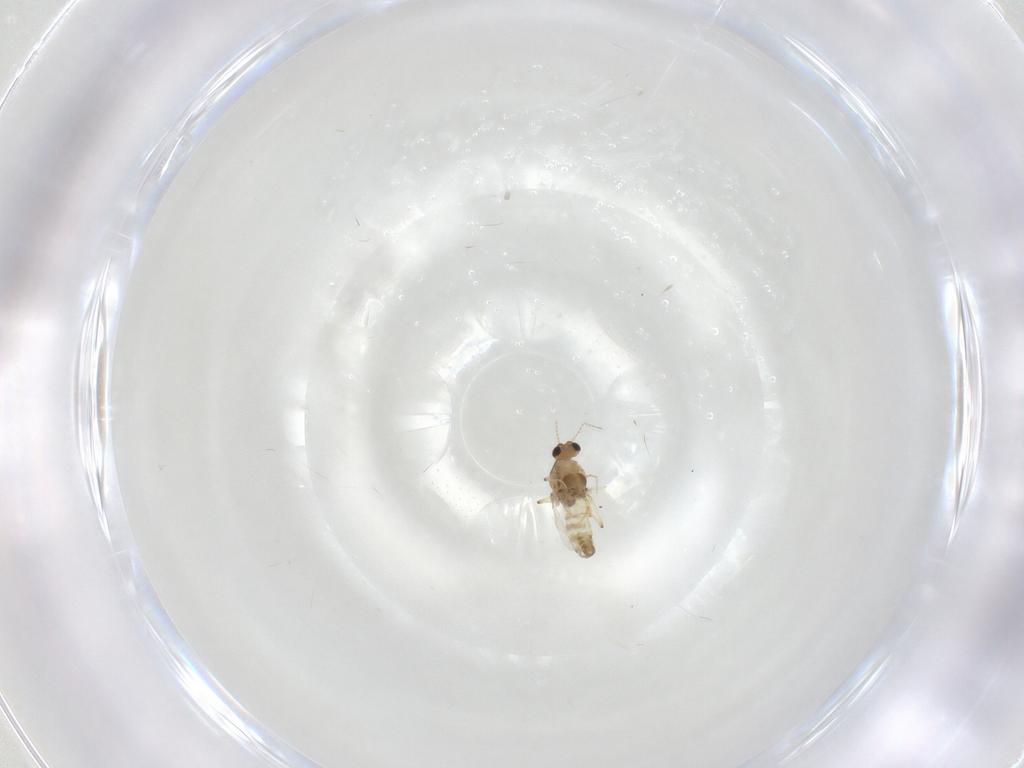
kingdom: Animalia
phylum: Arthropoda
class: Insecta
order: Diptera
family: Chironomidae
